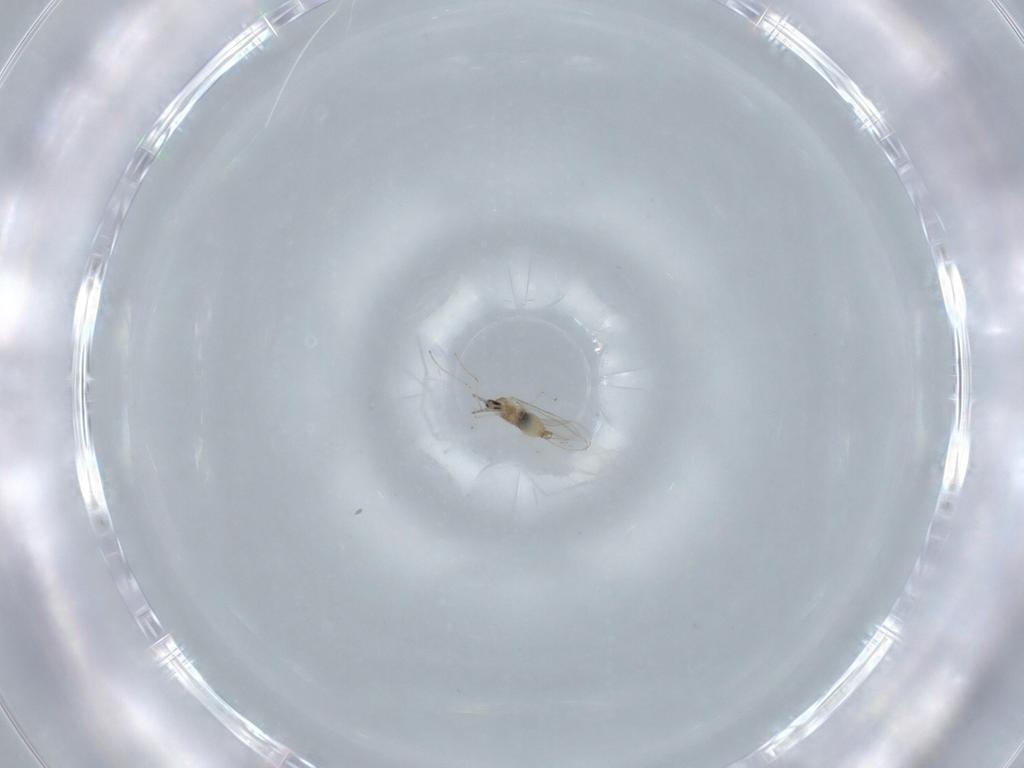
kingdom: Animalia
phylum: Arthropoda
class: Insecta
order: Diptera
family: Cecidomyiidae
